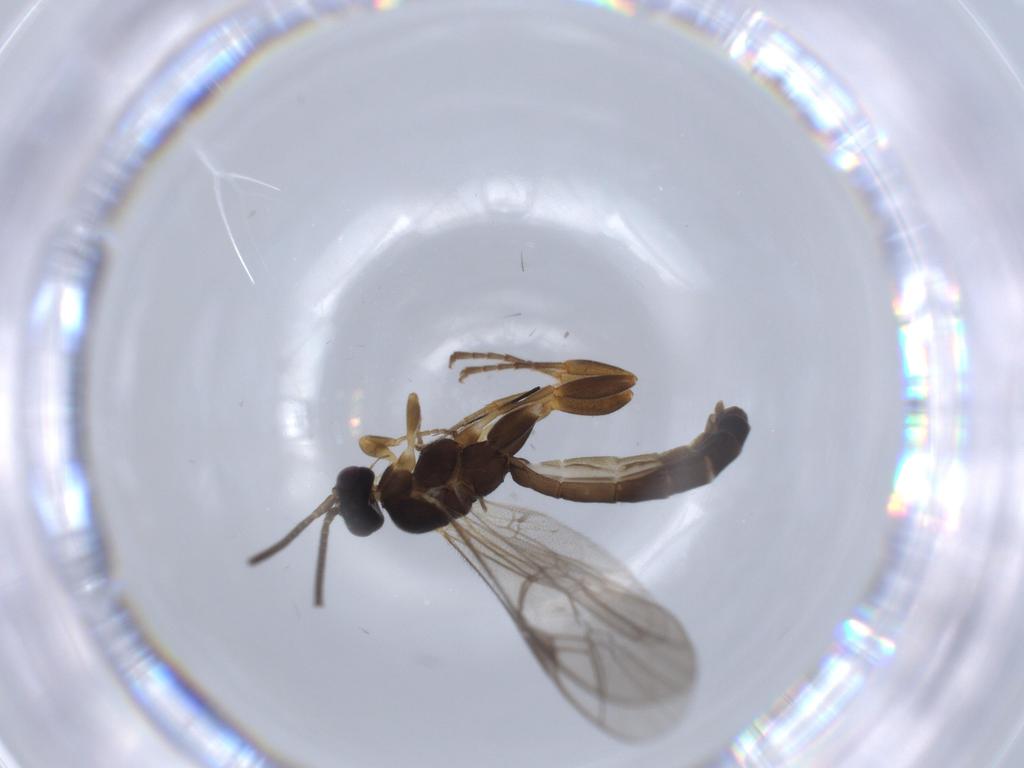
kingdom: Animalia
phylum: Arthropoda
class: Insecta
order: Hymenoptera
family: Ichneumonidae
